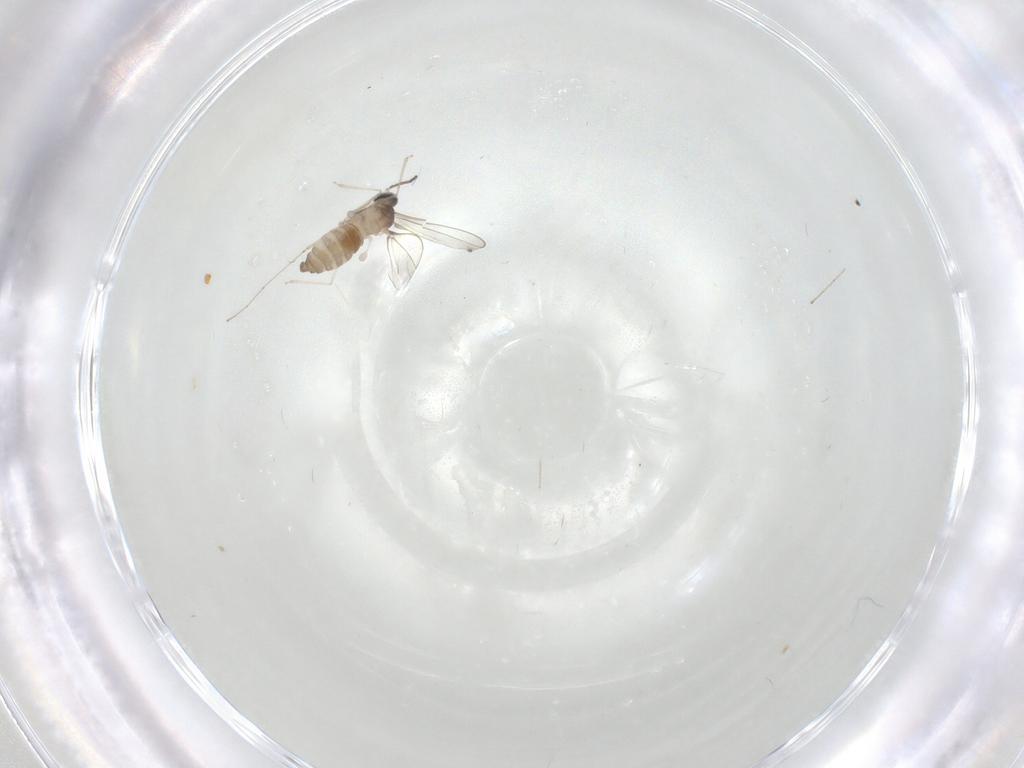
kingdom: Animalia
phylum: Arthropoda
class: Insecta
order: Diptera
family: Cecidomyiidae
